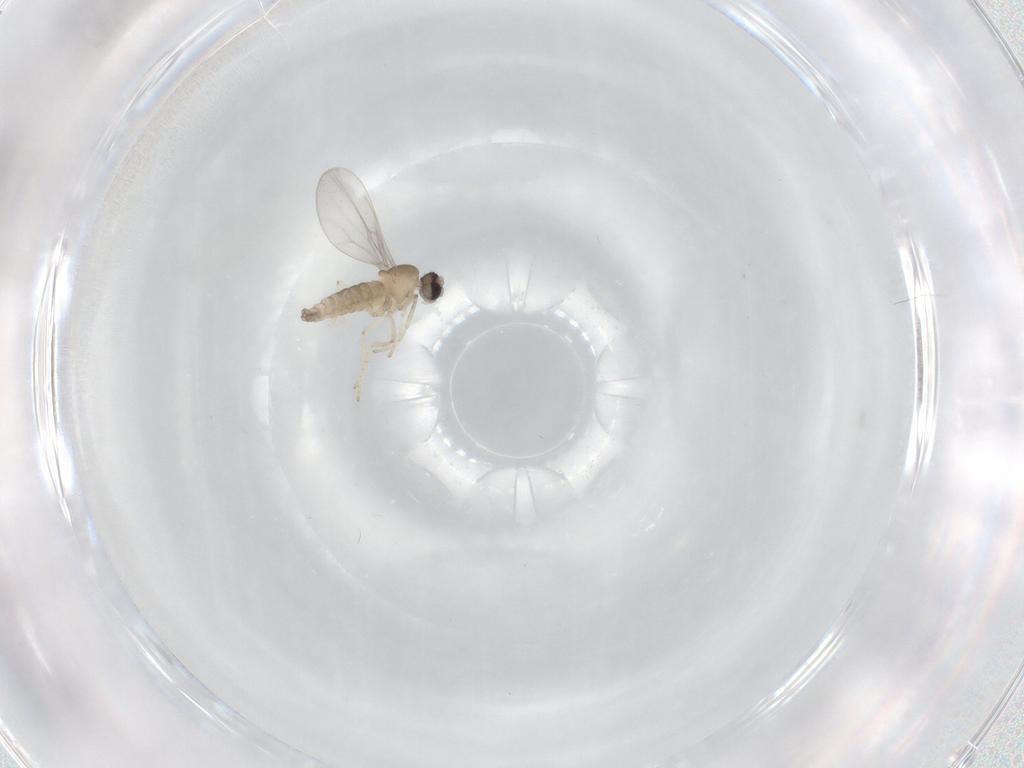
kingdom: Animalia
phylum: Arthropoda
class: Insecta
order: Diptera
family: Cecidomyiidae
